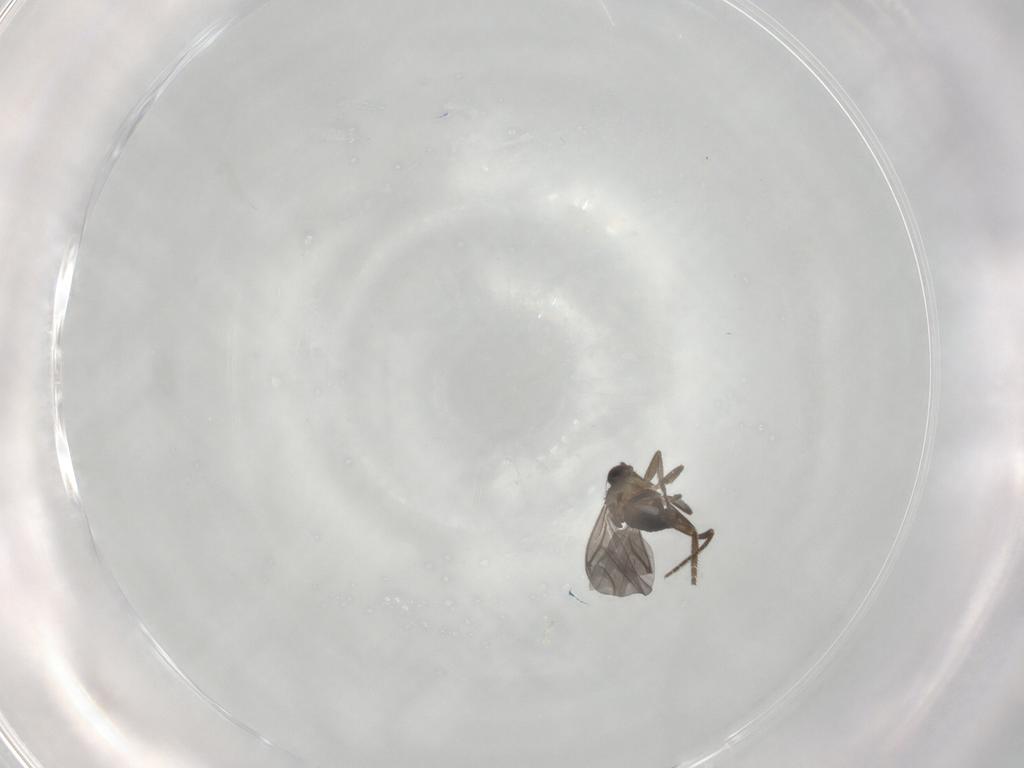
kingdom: Animalia
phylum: Arthropoda
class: Insecta
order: Diptera
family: Phoridae
